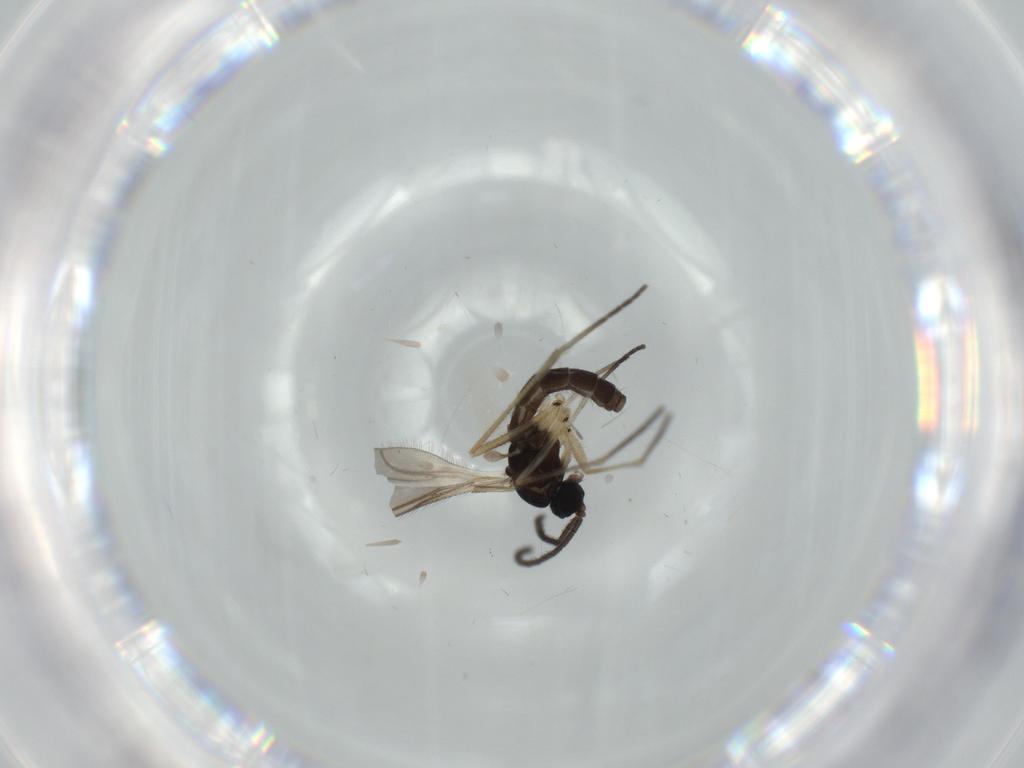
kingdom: Animalia
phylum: Arthropoda
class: Insecta
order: Diptera
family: Sciaridae
